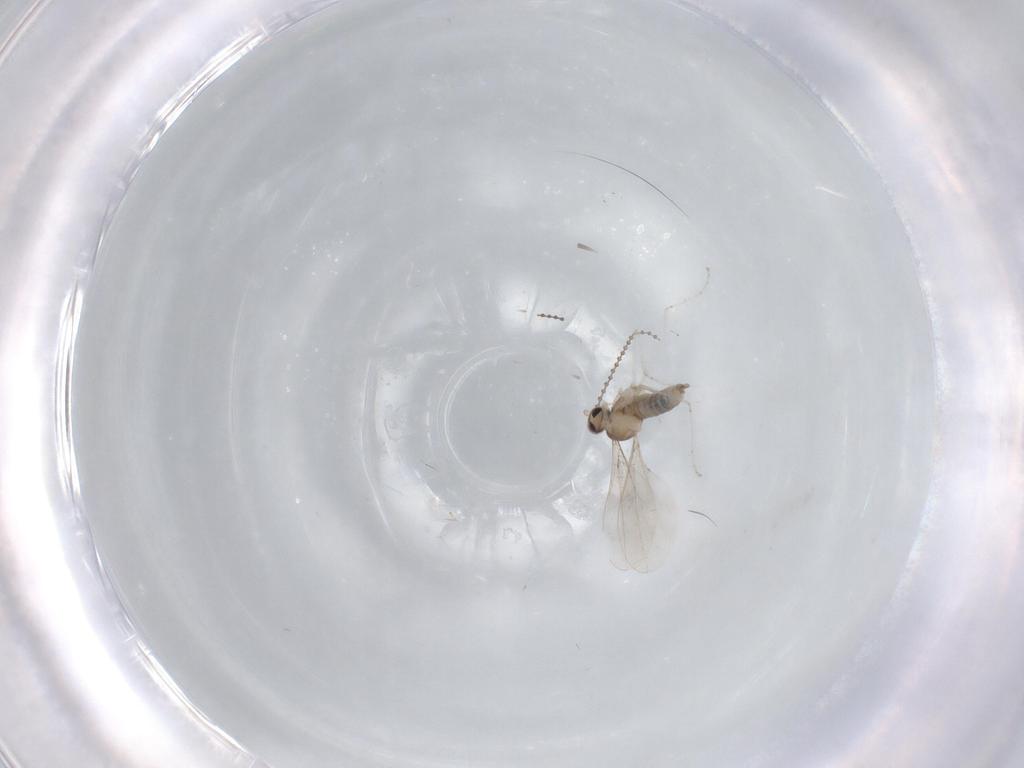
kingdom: Animalia
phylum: Arthropoda
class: Insecta
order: Diptera
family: Cecidomyiidae
